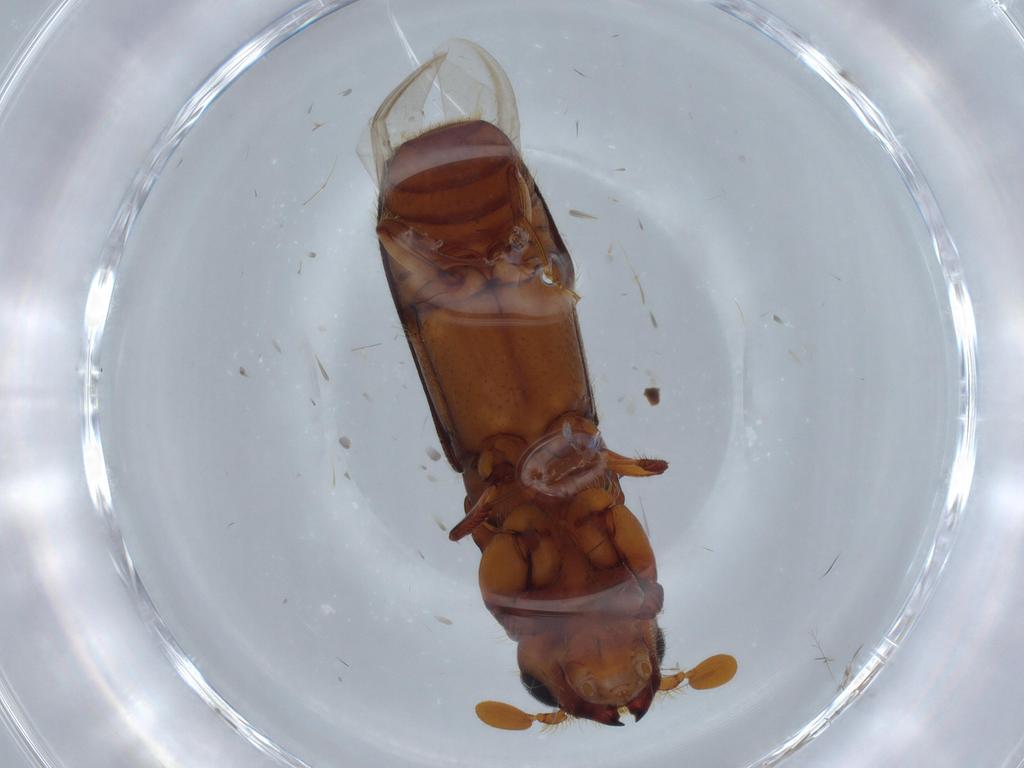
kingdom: Animalia
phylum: Arthropoda
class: Insecta
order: Coleoptera
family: Curculionidae
